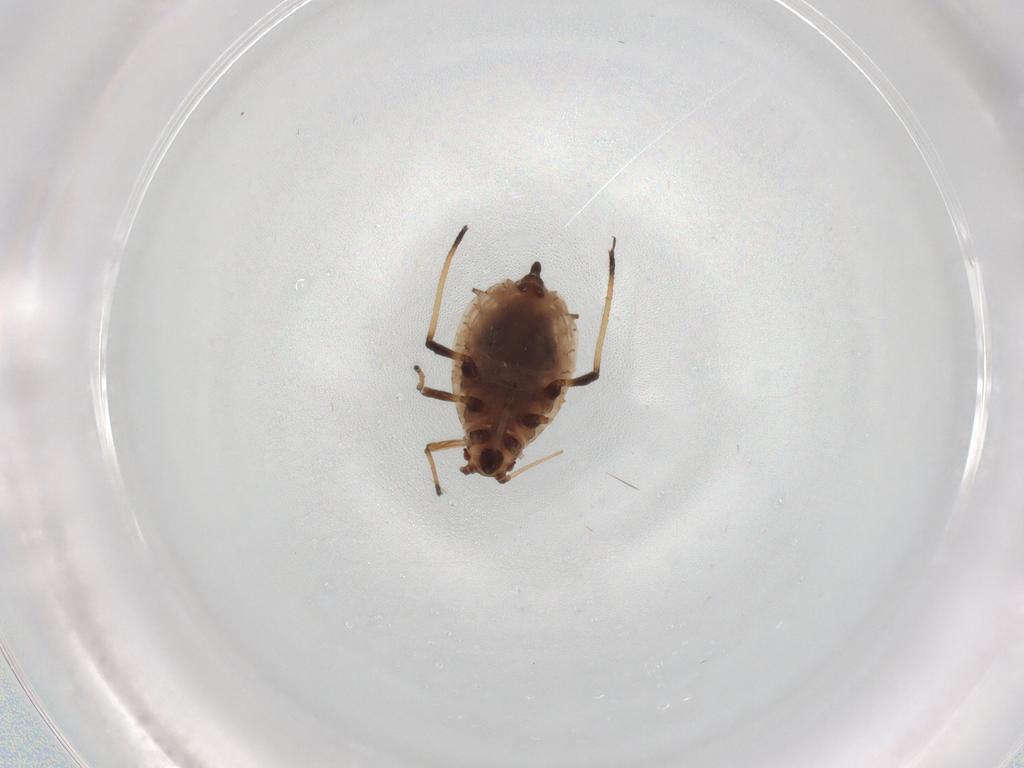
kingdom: Animalia
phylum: Arthropoda
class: Insecta
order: Hemiptera
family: Aphididae
